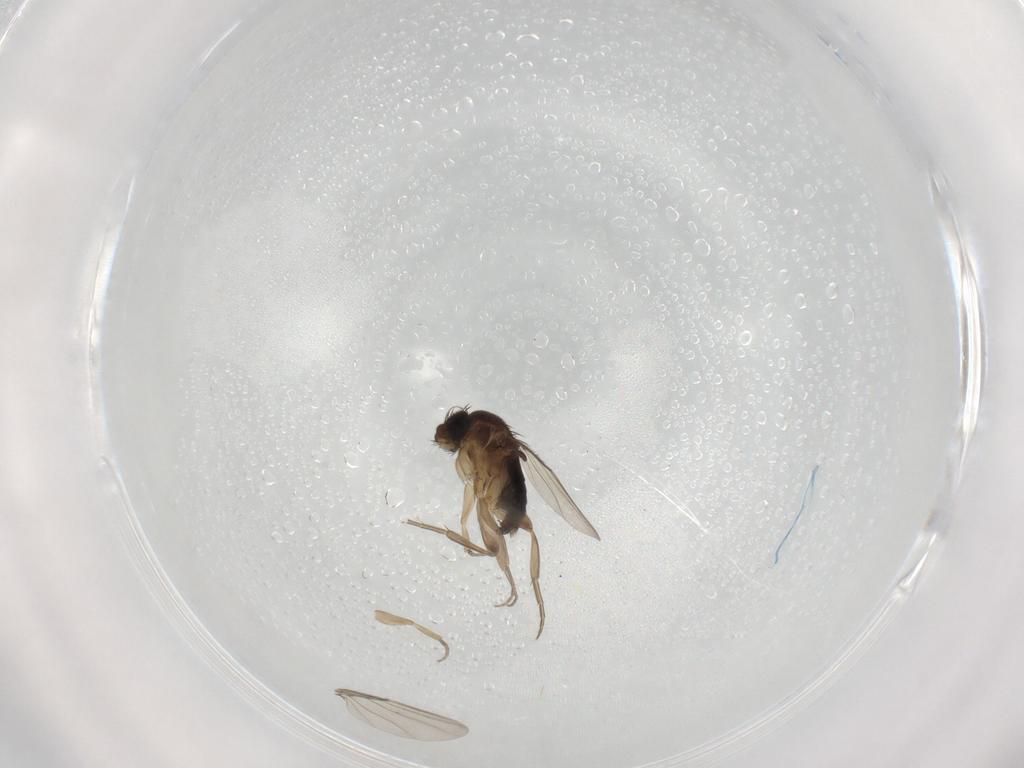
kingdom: Animalia
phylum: Arthropoda
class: Insecta
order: Diptera
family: Phoridae
